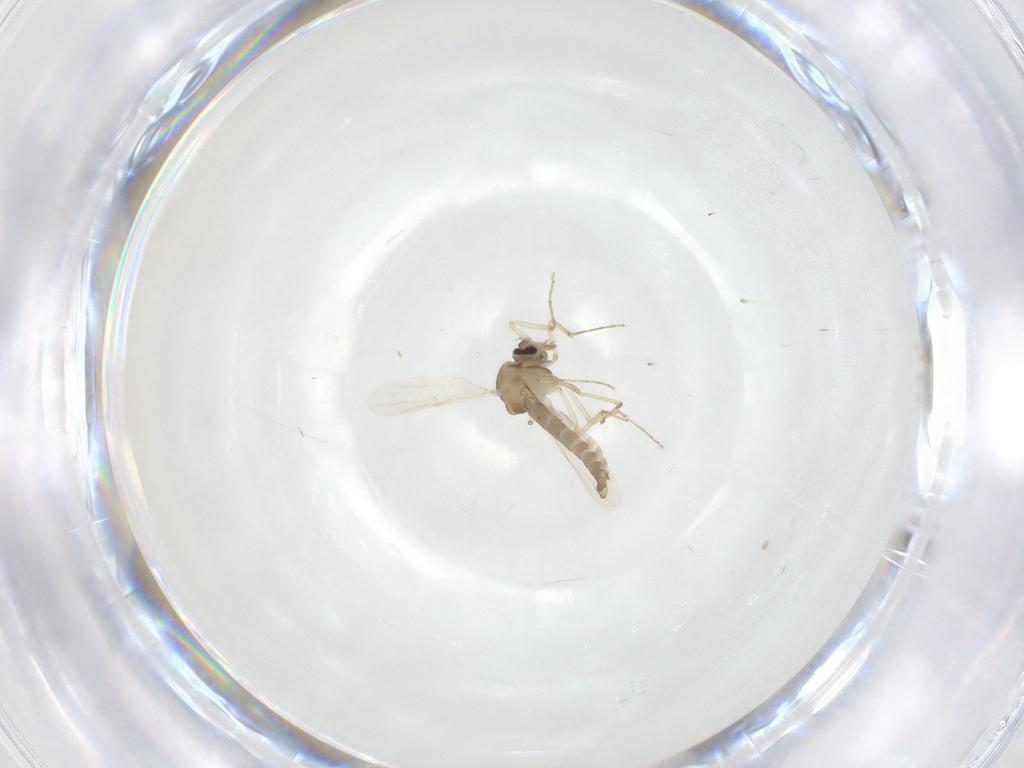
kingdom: Animalia
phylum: Arthropoda
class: Insecta
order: Diptera
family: Ceratopogonidae
